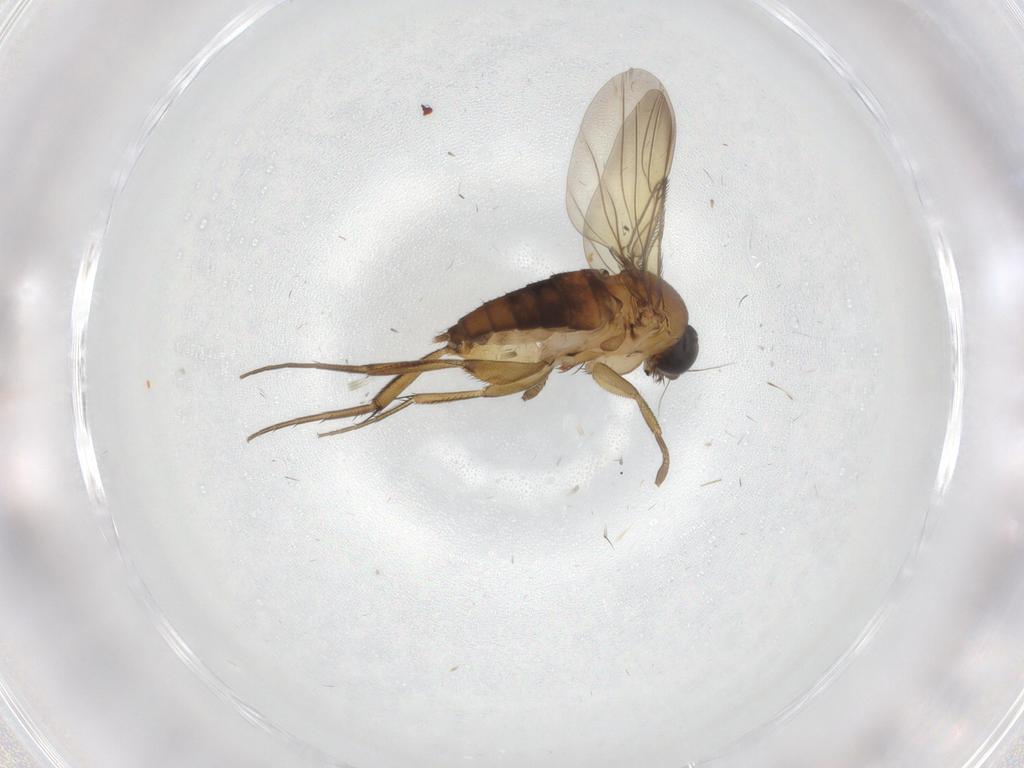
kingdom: Animalia
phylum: Arthropoda
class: Insecta
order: Diptera
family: Phoridae
